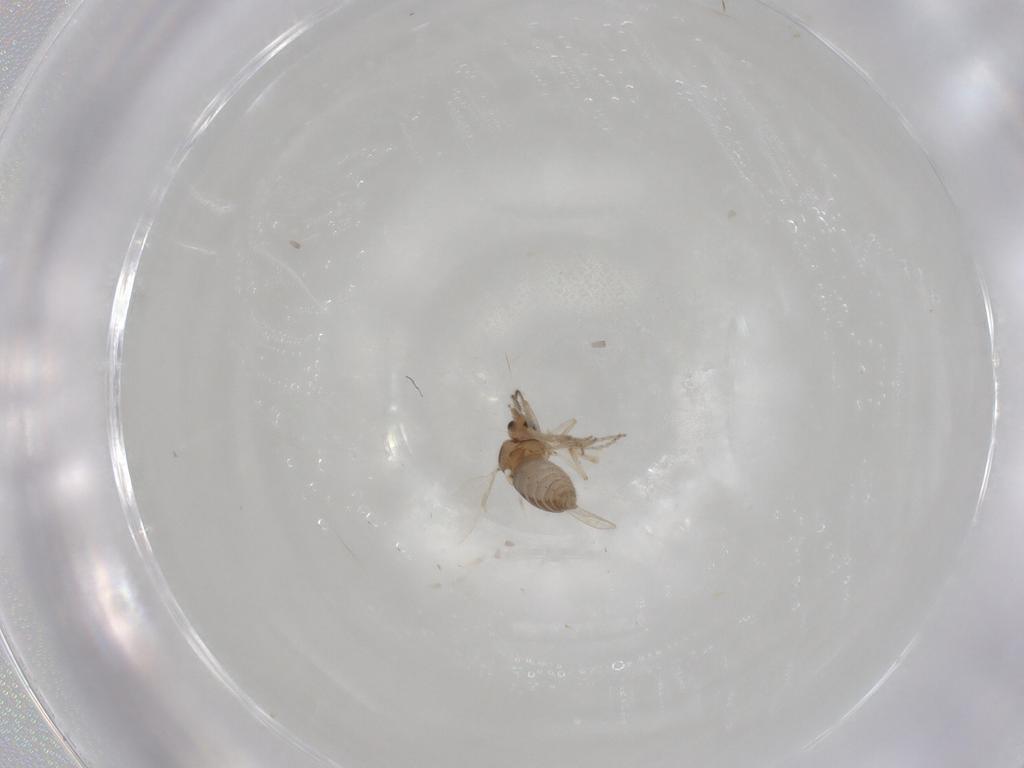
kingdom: Animalia
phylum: Arthropoda
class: Insecta
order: Diptera
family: Ceratopogonidae
